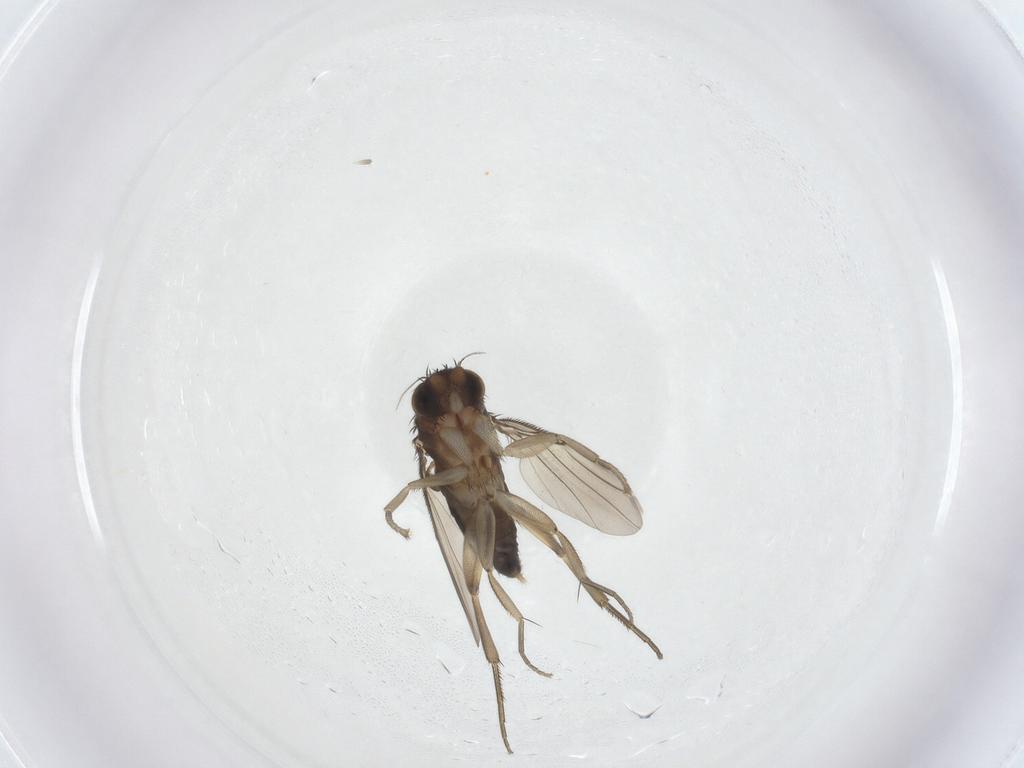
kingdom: Animalia
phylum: Arthropoda
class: Insecta
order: Diptera
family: Phoridae
